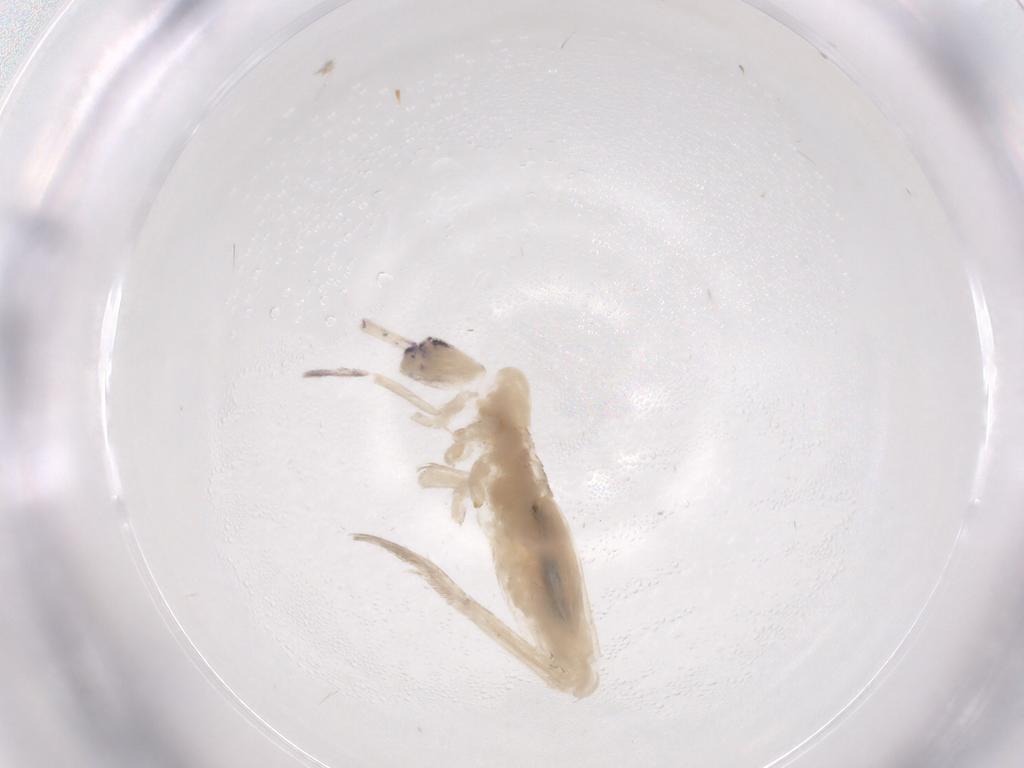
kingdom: Animalia
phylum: Arthropoda
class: Collembola
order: Entomobryomorpha
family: Entomobryidae
